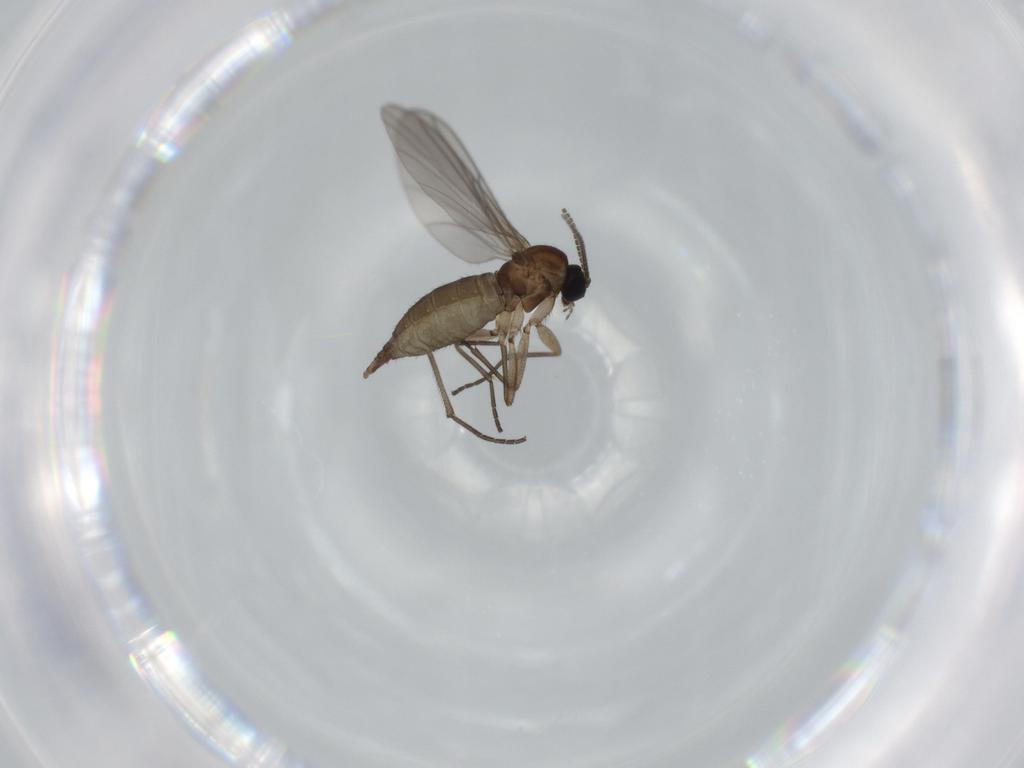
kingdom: Animalia
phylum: Arthropoda
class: Insecta
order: Diptera
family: Sciaridae
